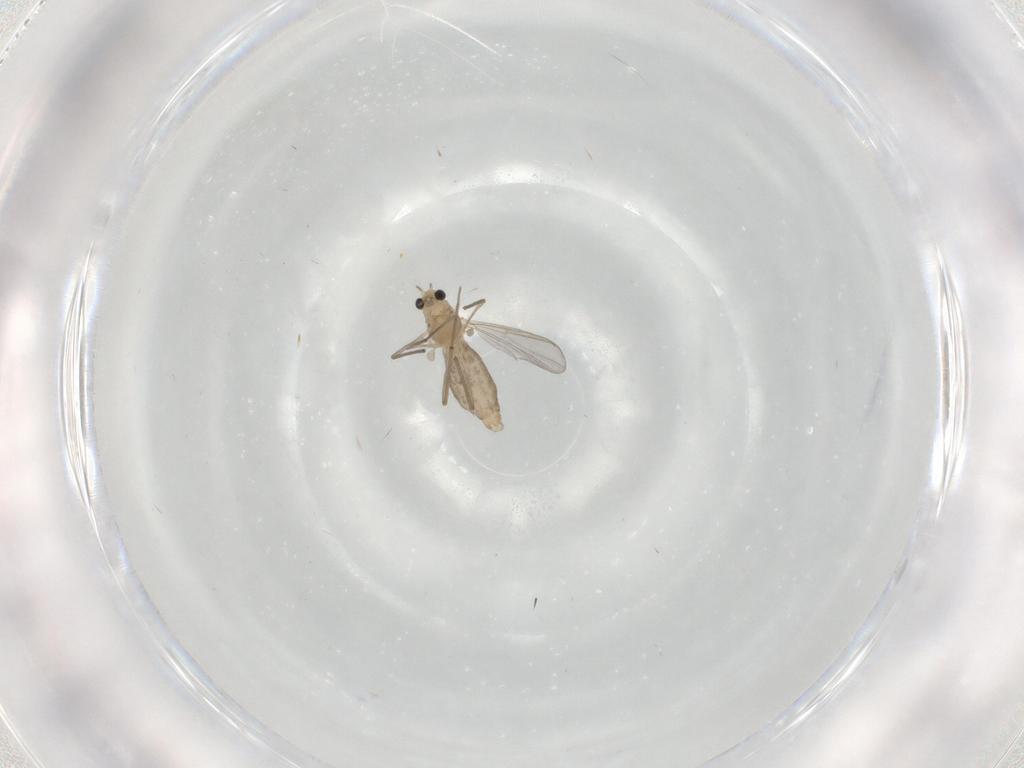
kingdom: Animalia
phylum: Arthropoda
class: Insecta
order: Diptera
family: Chironomidae
